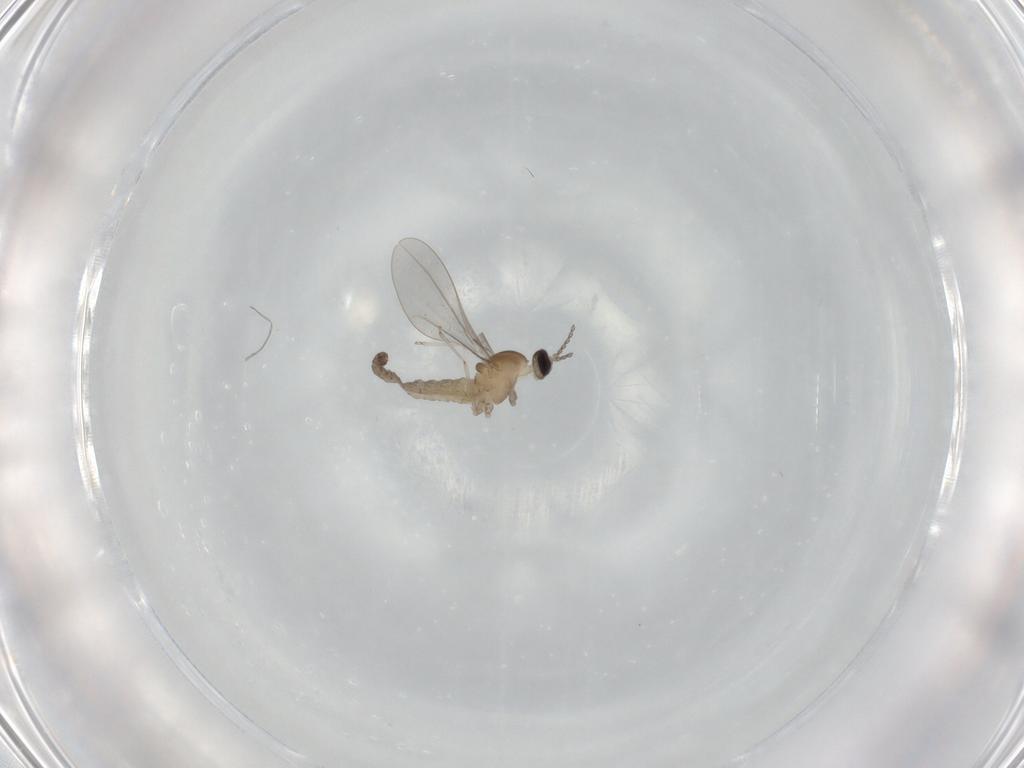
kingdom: Animalia
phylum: Arthropoda
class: Insecta
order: Diptera
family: Cecidomyiidae
